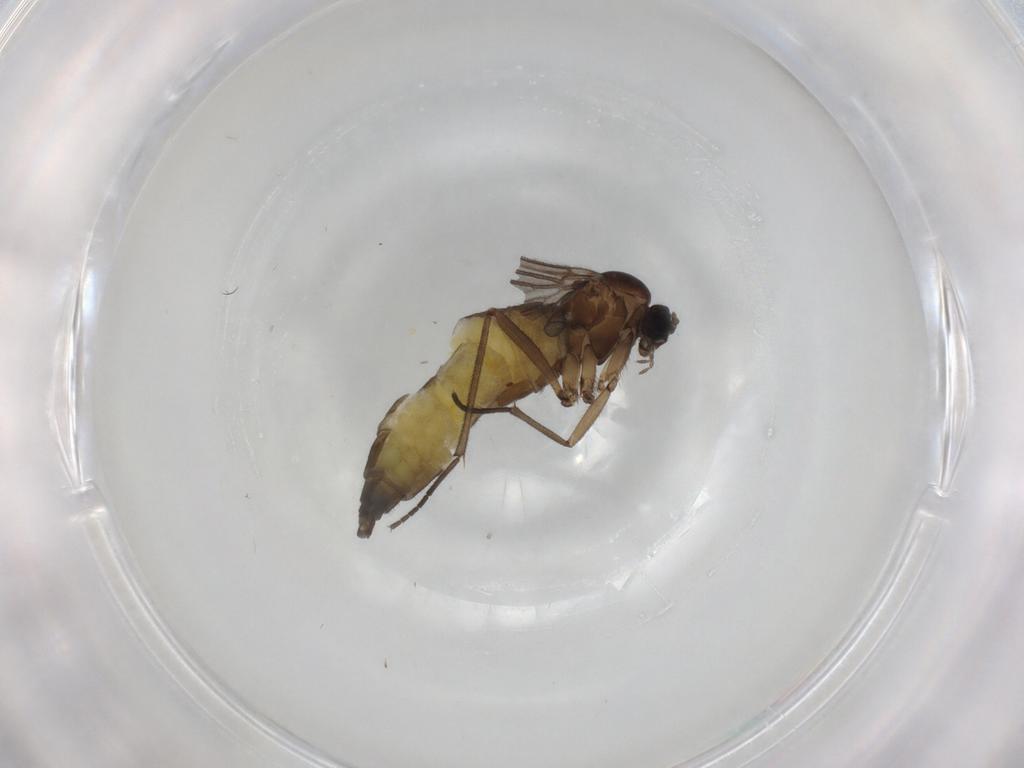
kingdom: Animalia
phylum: Arthropoda
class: Insecta
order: Diptera
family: Sciaridae
